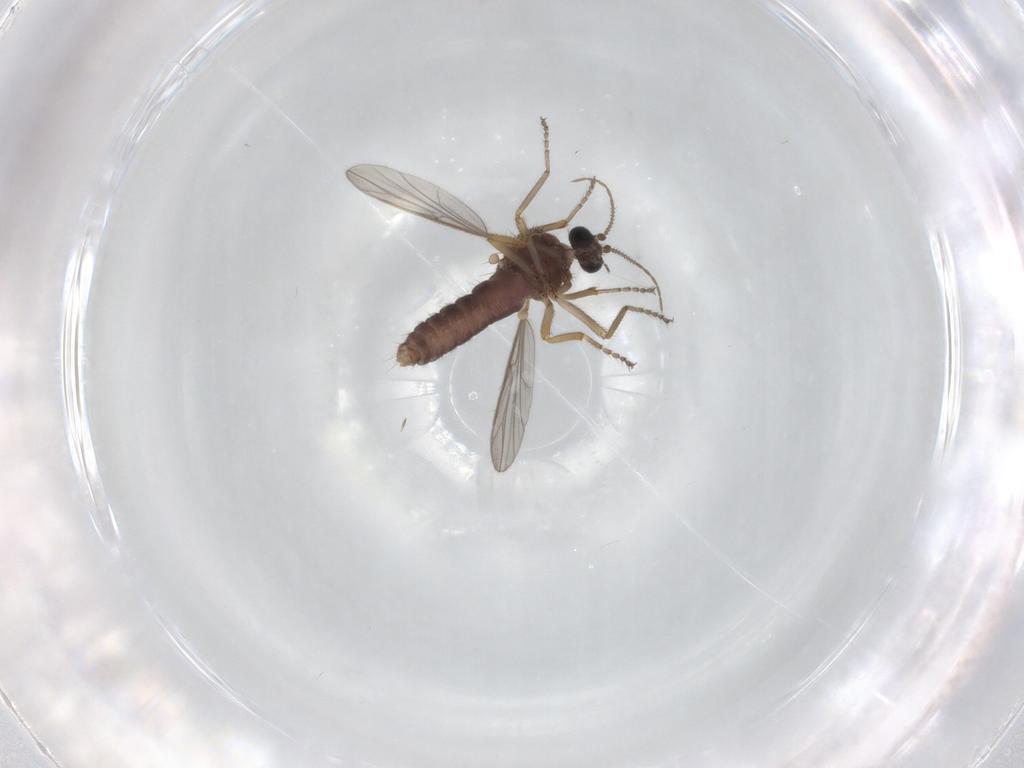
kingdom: Animalia
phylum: Arthropoda
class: Insecta
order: Diptera
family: Ceratopogonidae
